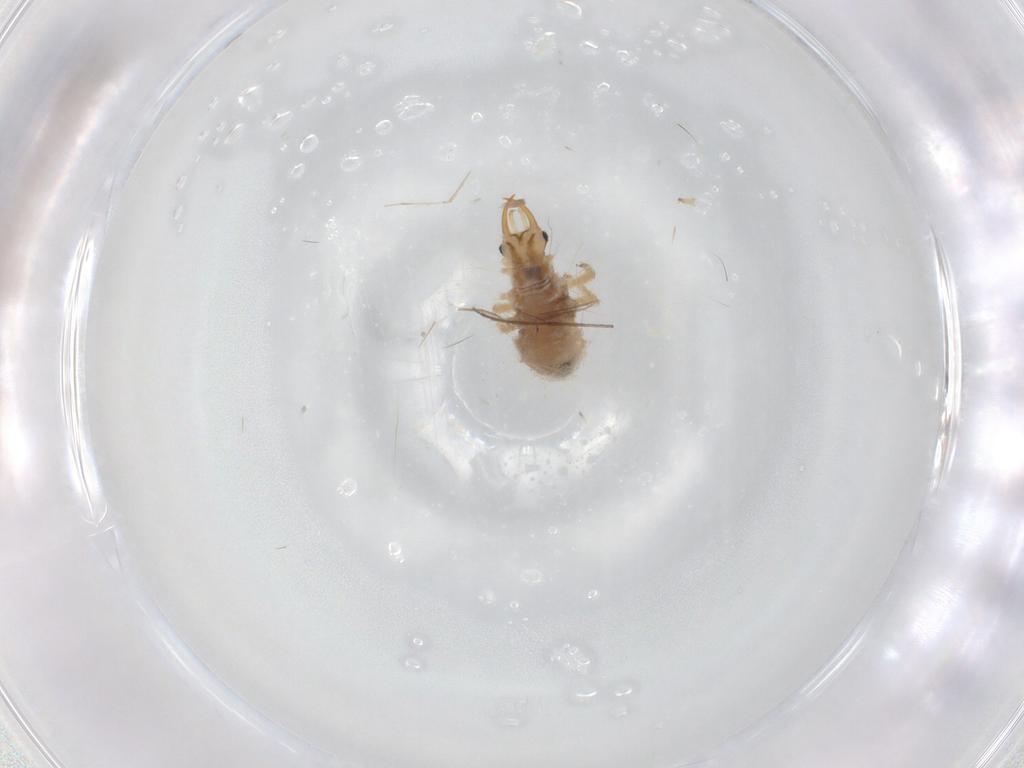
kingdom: Animalia
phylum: Arthropoda
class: Insecta
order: Neuroptera
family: Chrysopidae
